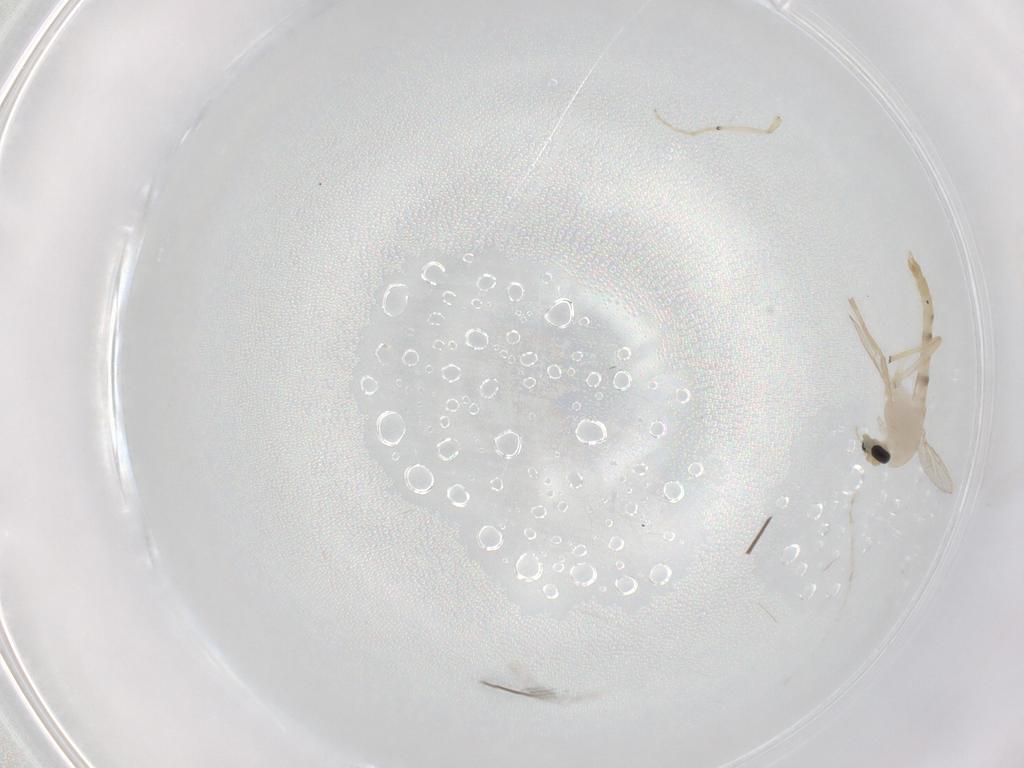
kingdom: Animalia
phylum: Arthropoda
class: Insecta
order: Diptera
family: Chironomidae
